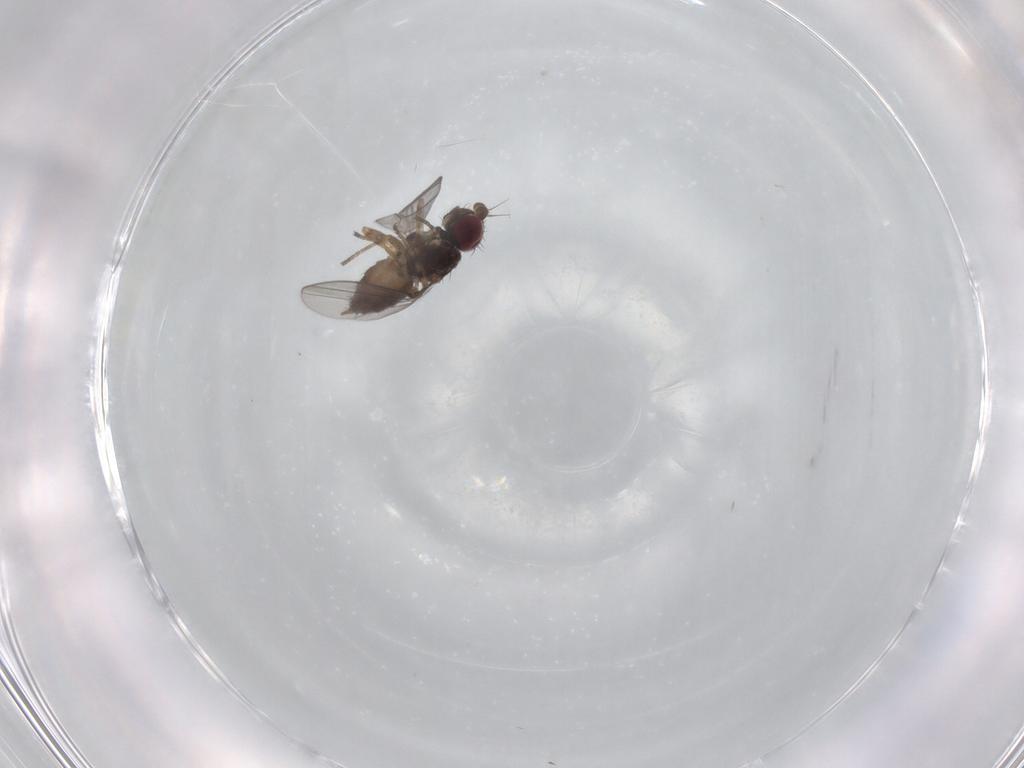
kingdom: Animalia
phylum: Arthropoda
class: Insecta
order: Diptera
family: Chloropidae
